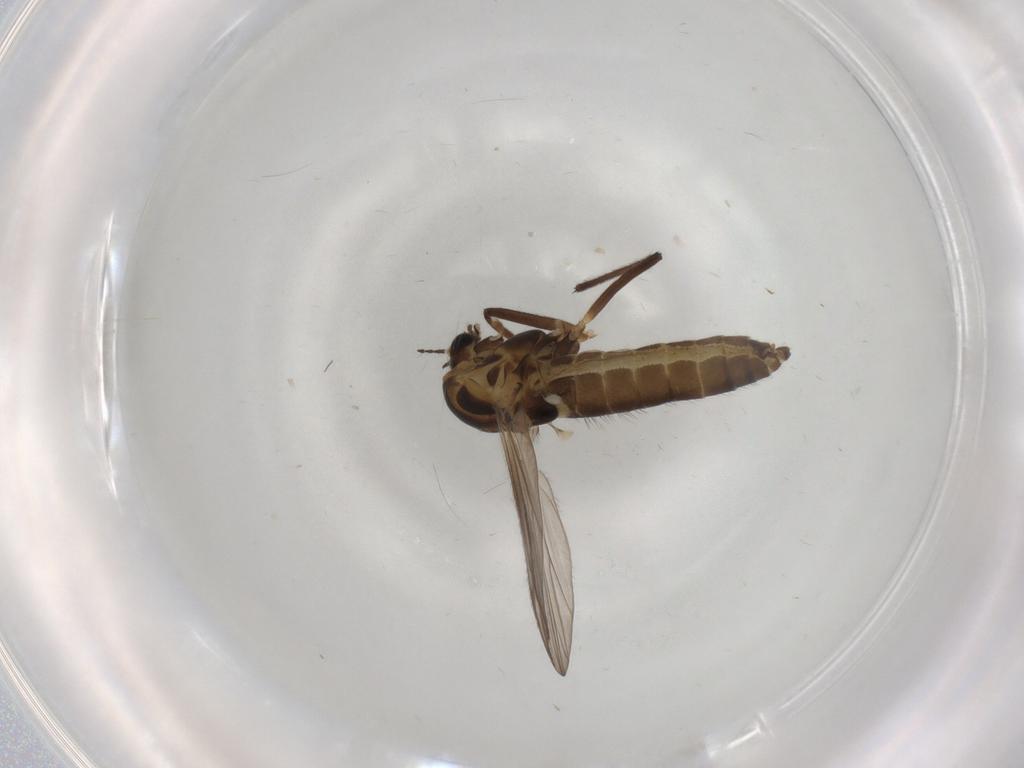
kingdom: Animalia
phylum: Arthropoda
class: Insecta
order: Diptera
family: Chironomidae
